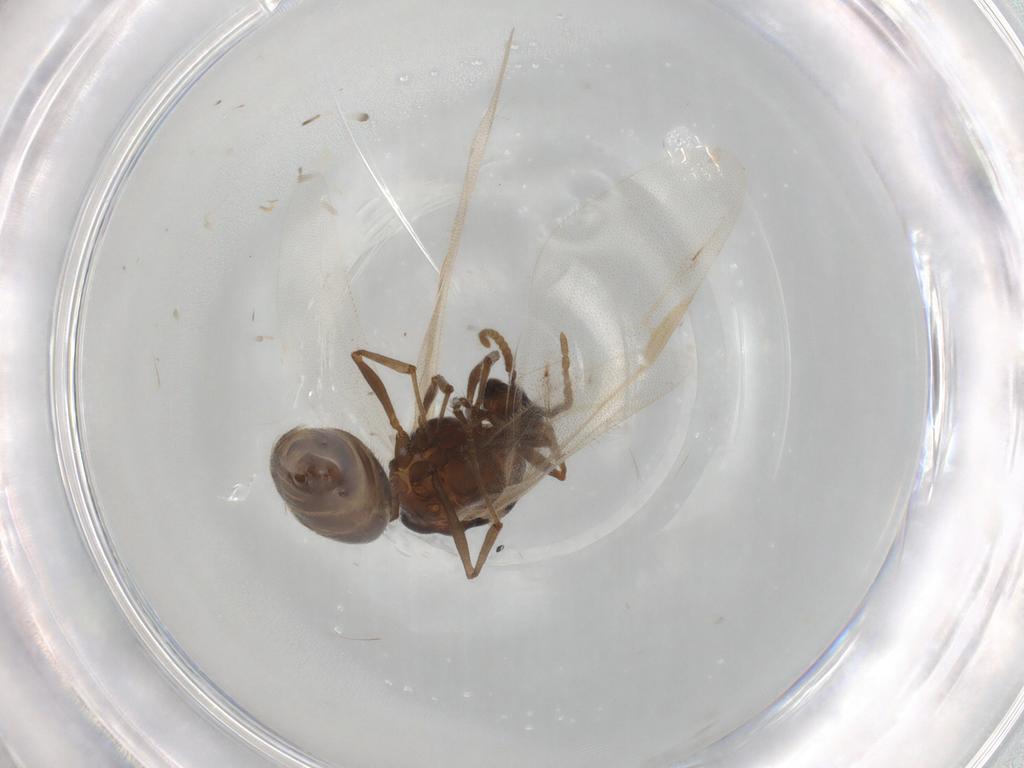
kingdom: Animalia
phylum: Arthropoda
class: Insecta
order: Hymenoptera
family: Formicidae
